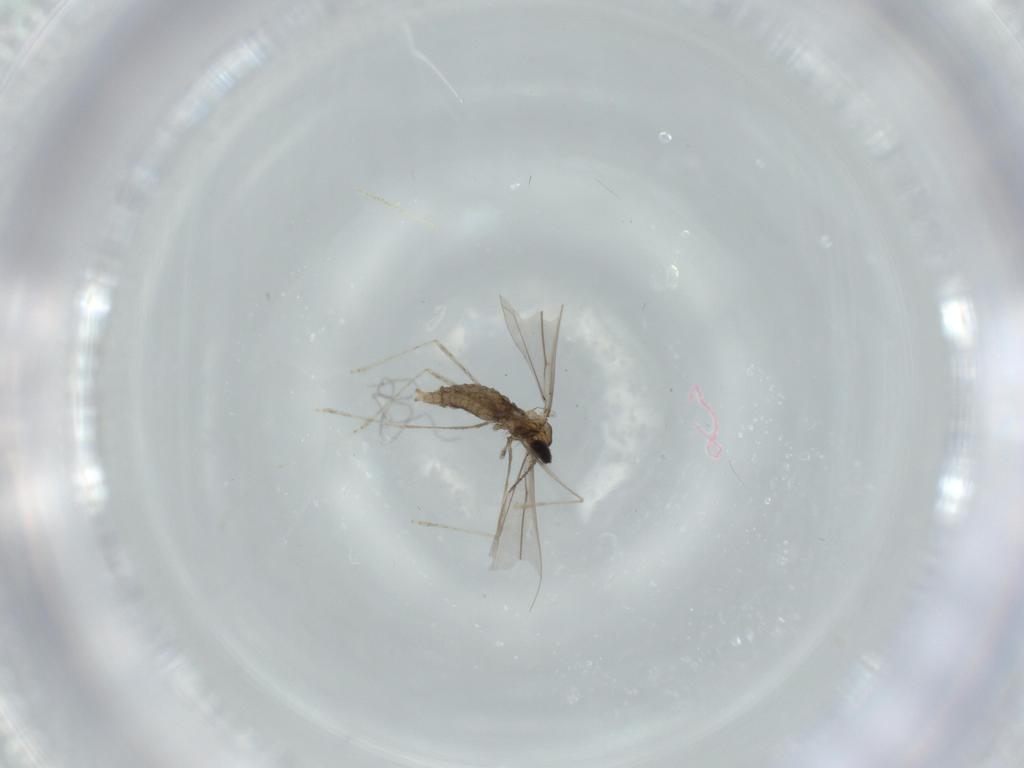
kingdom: Animalia
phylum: Arthropoda
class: Insecta
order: Diptera
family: Cecidomyiidae
